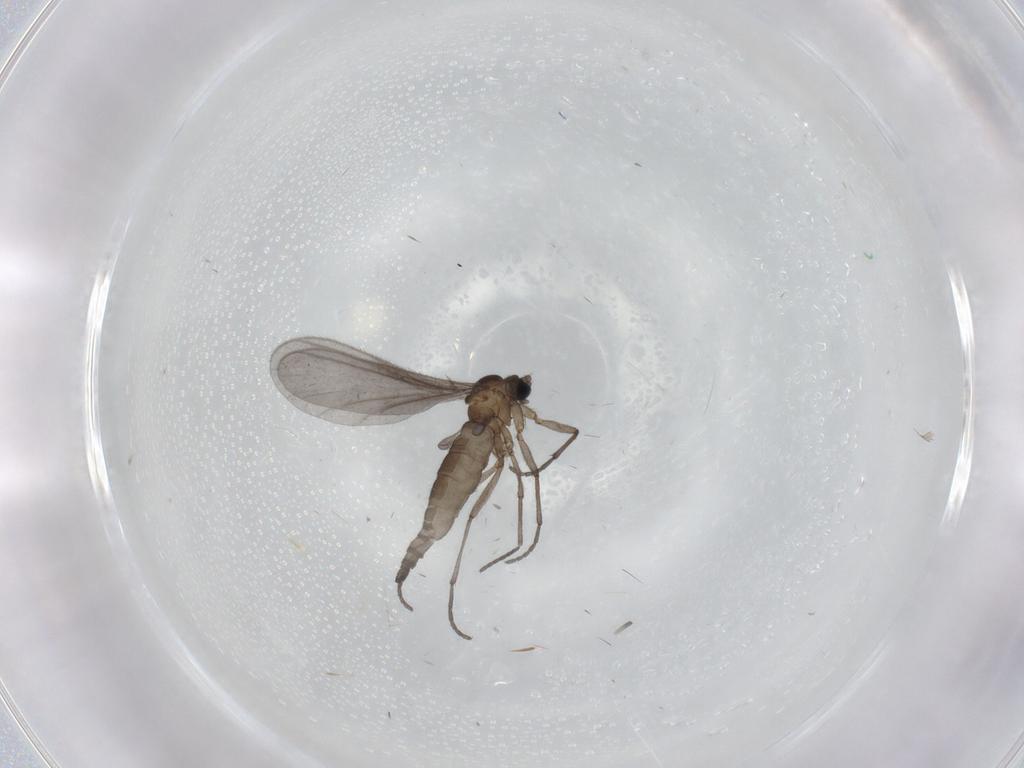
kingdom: Animalia
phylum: Arthropoda
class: Insecta
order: Diptera
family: Sciaridae
